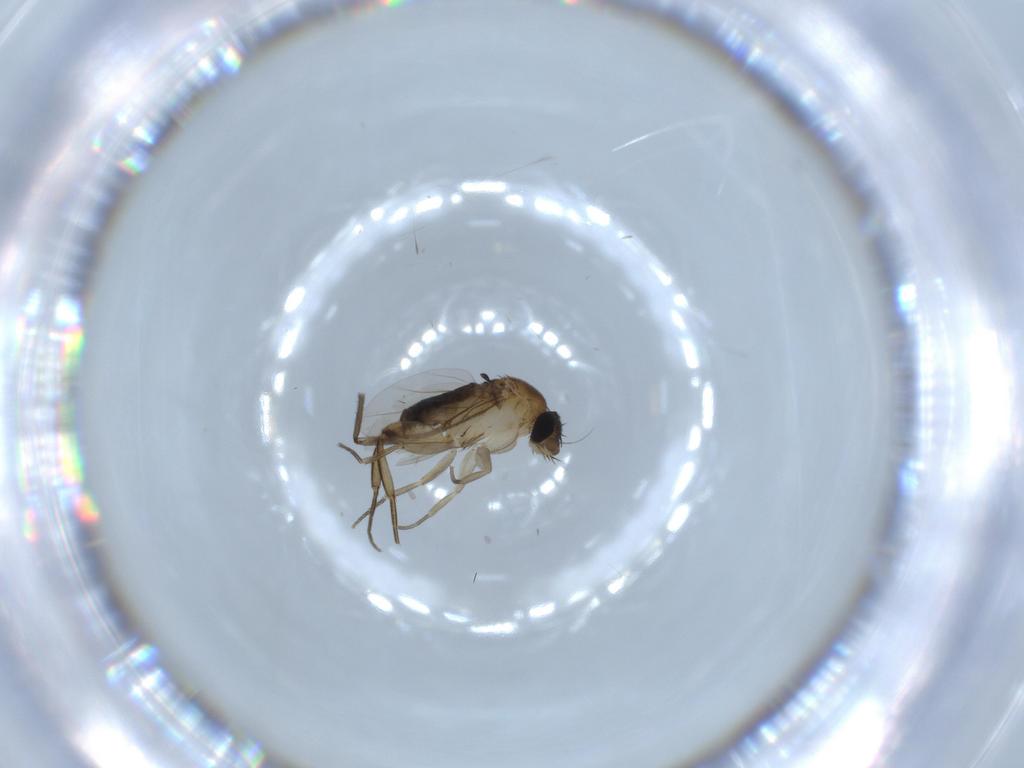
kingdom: Animalia
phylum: Arthropoda
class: Insecta
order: Diptera
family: Phoridae
